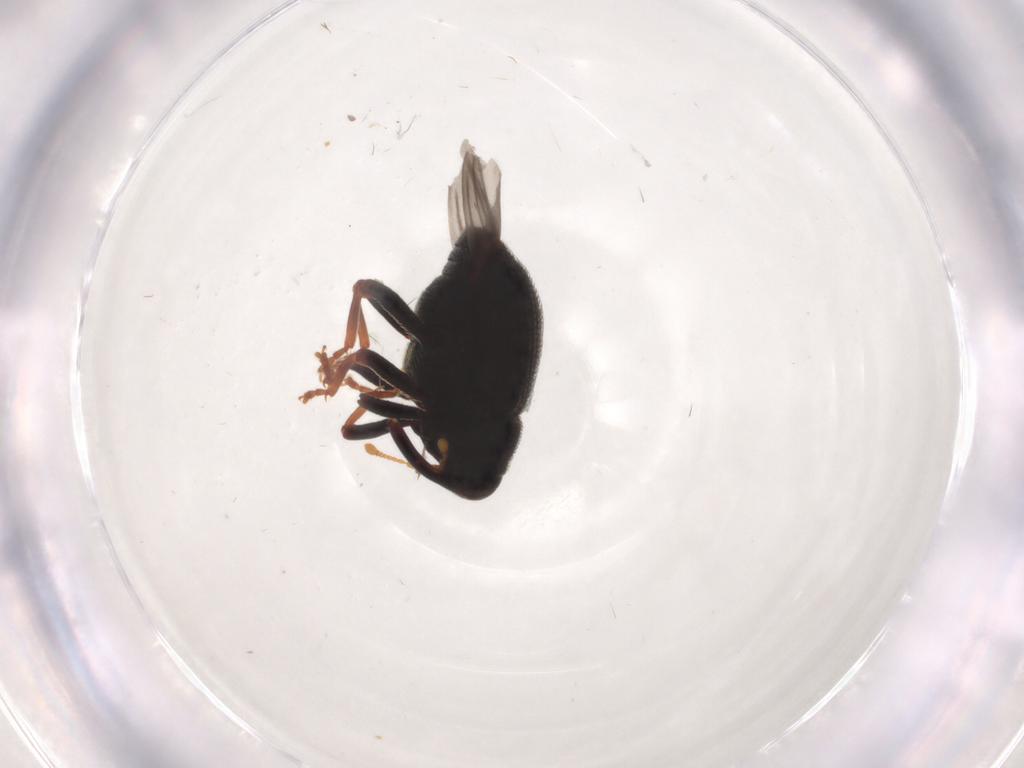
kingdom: Animalia
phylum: Arthropoda
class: Insecta
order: Coleoptera
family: Curculionidae
